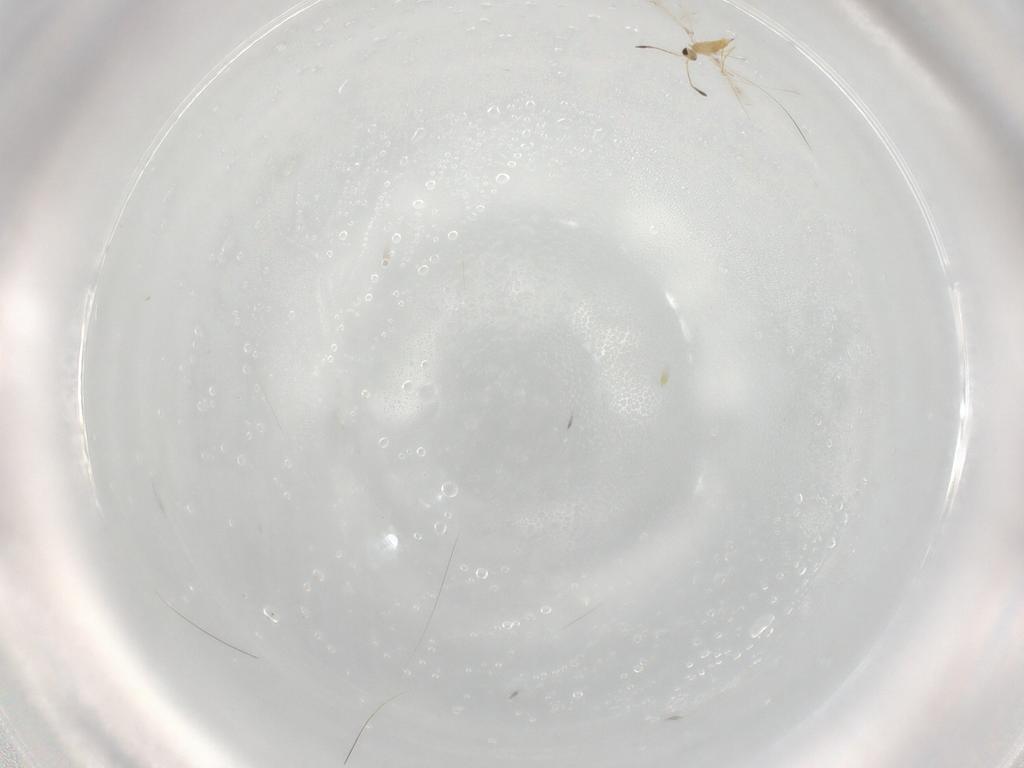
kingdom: Animalia
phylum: Arthropoda
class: Insecta
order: Hymenoptera
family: Mymaridae
